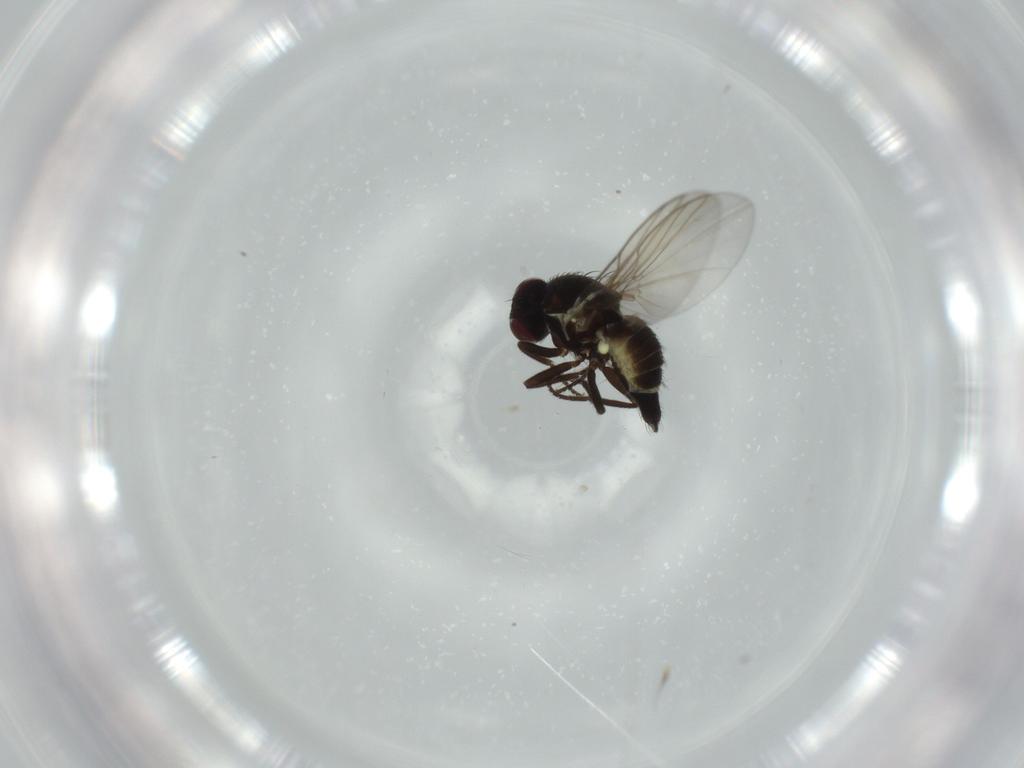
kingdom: Animalia
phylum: Arthropoda
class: Insecta
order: Diptera
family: Agromyzidae
